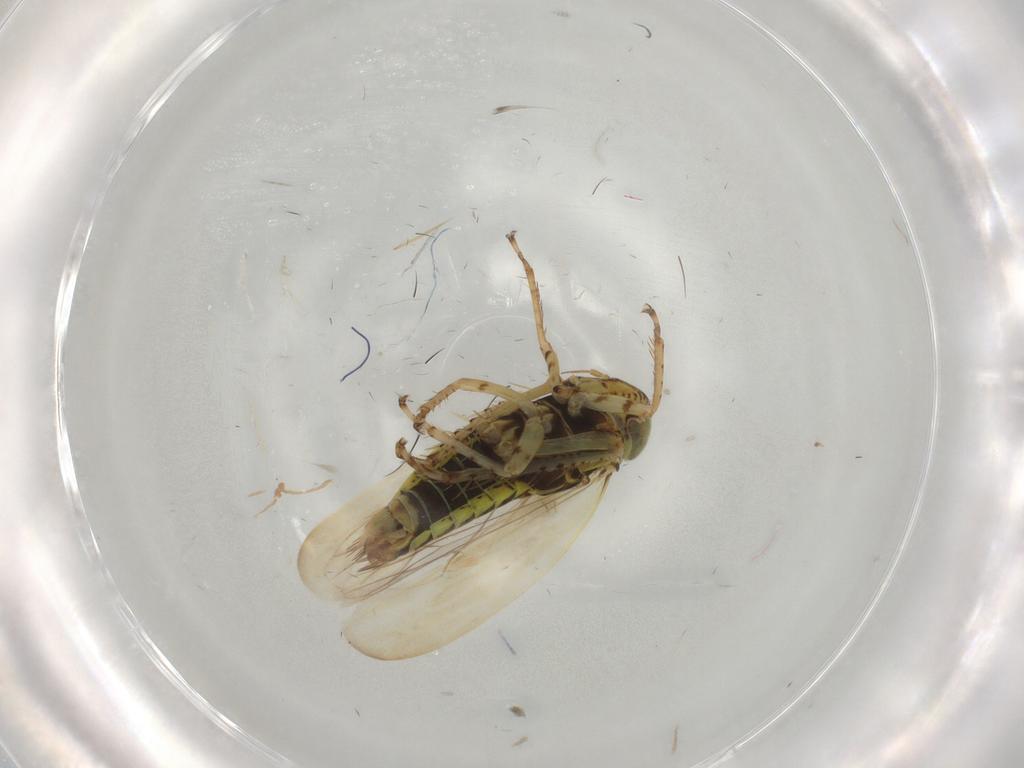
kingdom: Animalia
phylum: Arthropoda
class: Insecta
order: Hemiptera
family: Cicadellidae
